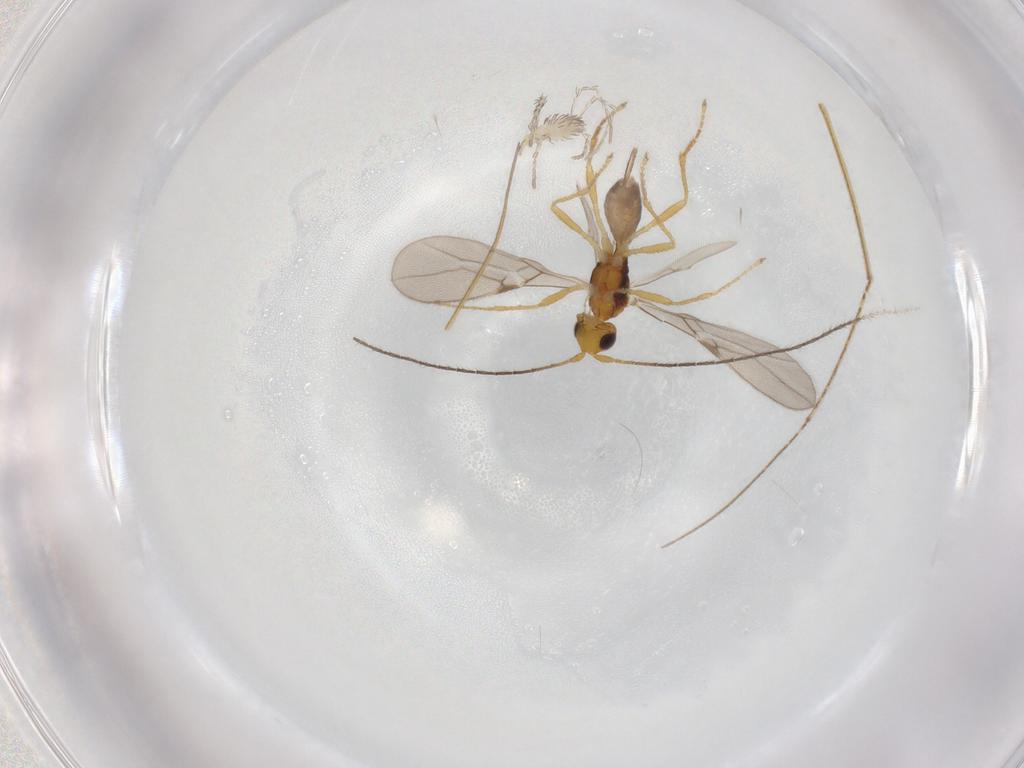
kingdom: Animalia
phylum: Arthropoda
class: Insecta
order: Hymenoptera
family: Braconidae
